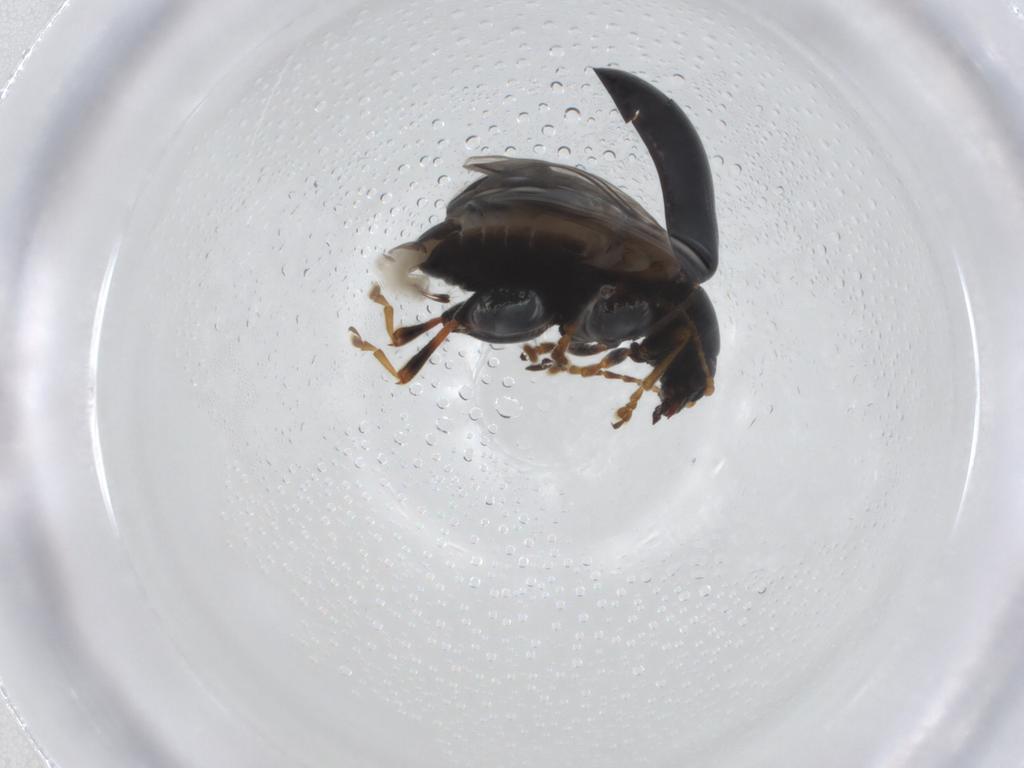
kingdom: Animalia
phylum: Arthropoda
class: Insecta
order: Coleoptera
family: Chrysomelidae
